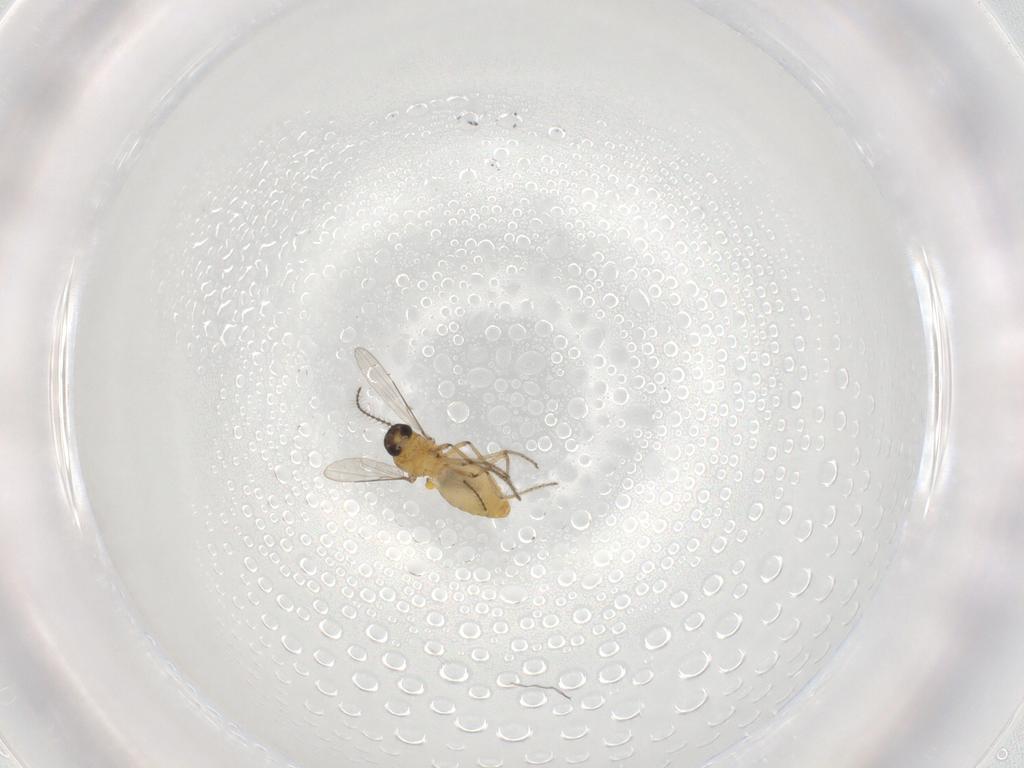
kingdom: Animalia
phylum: Arthropoda
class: Insecta
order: Diptera
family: Ceratopogonidae
